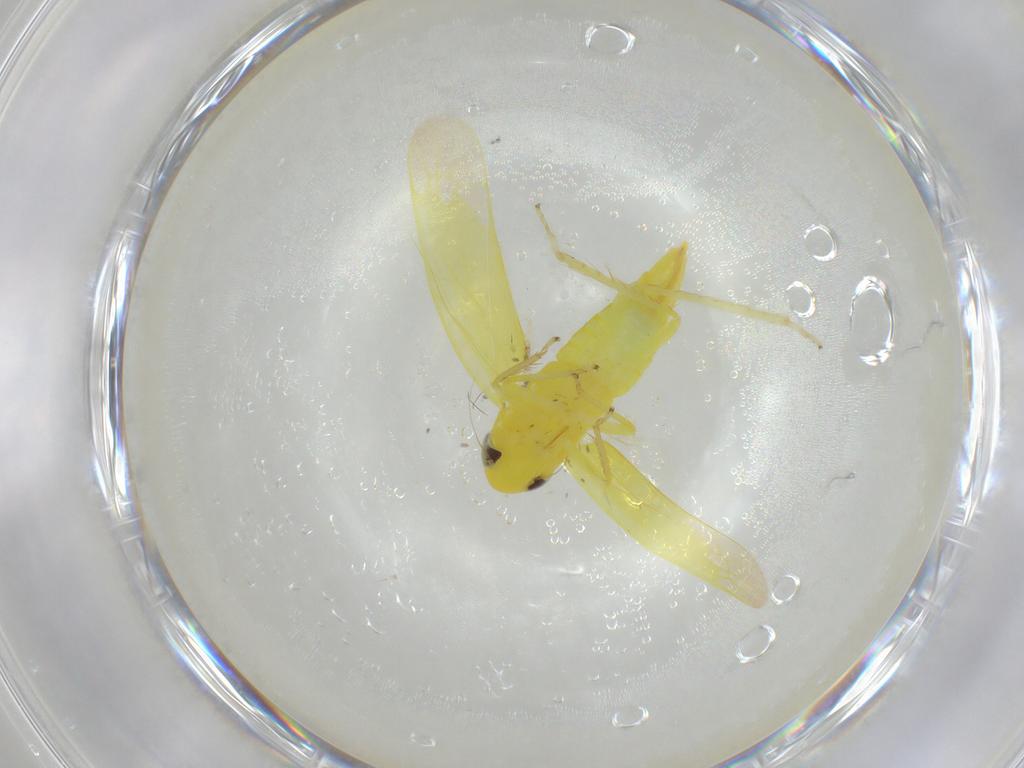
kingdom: Animalia
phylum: Arthropoda
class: Insecta
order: Hemiptera
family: Cicadellidae
